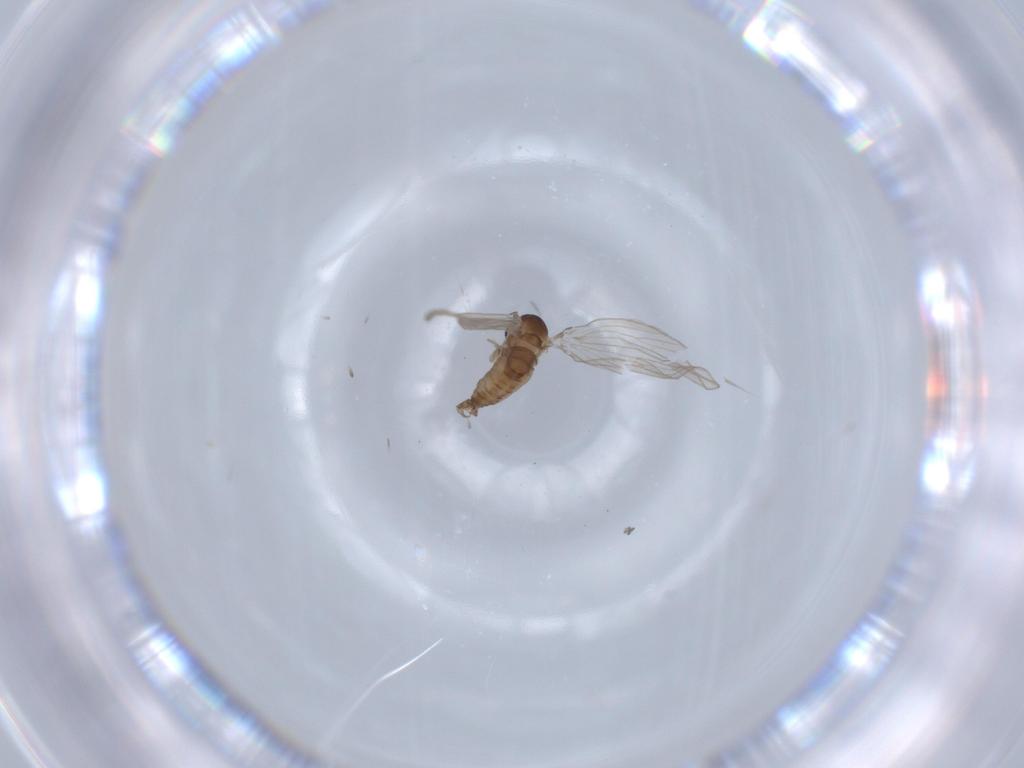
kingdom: Animalia
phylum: Arthropoda
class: Insecta
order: Diptera
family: Psychodidae
